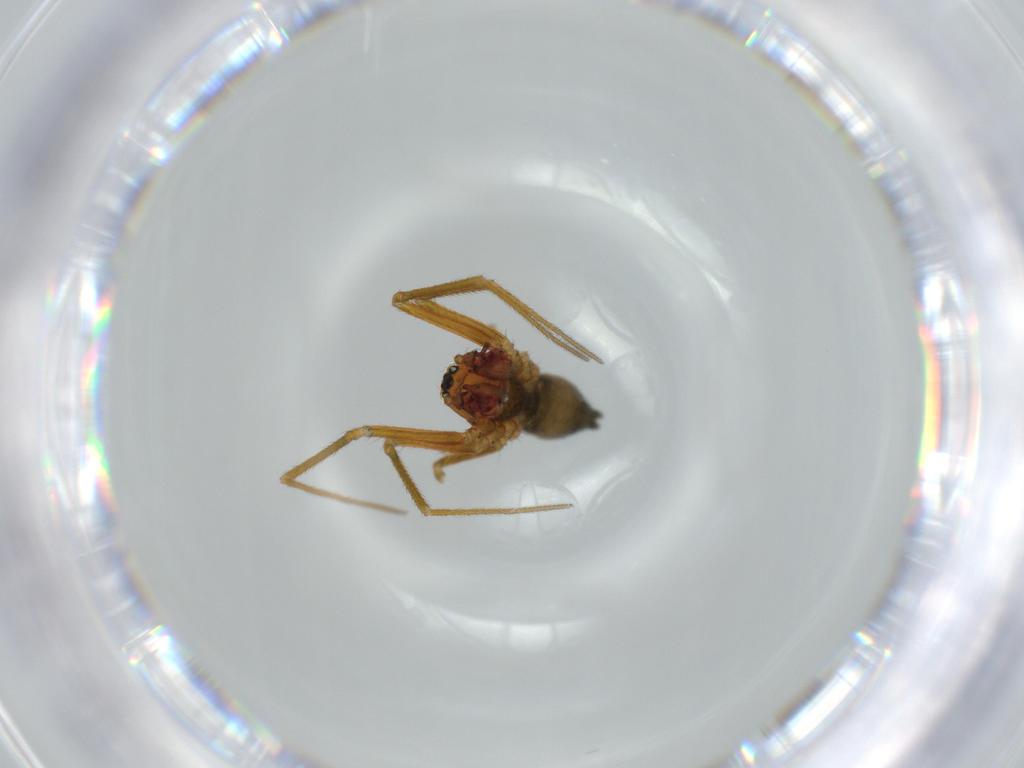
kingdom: Animalia
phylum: Arthropoda
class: Arachnida
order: Araneae
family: Linyphiidae
